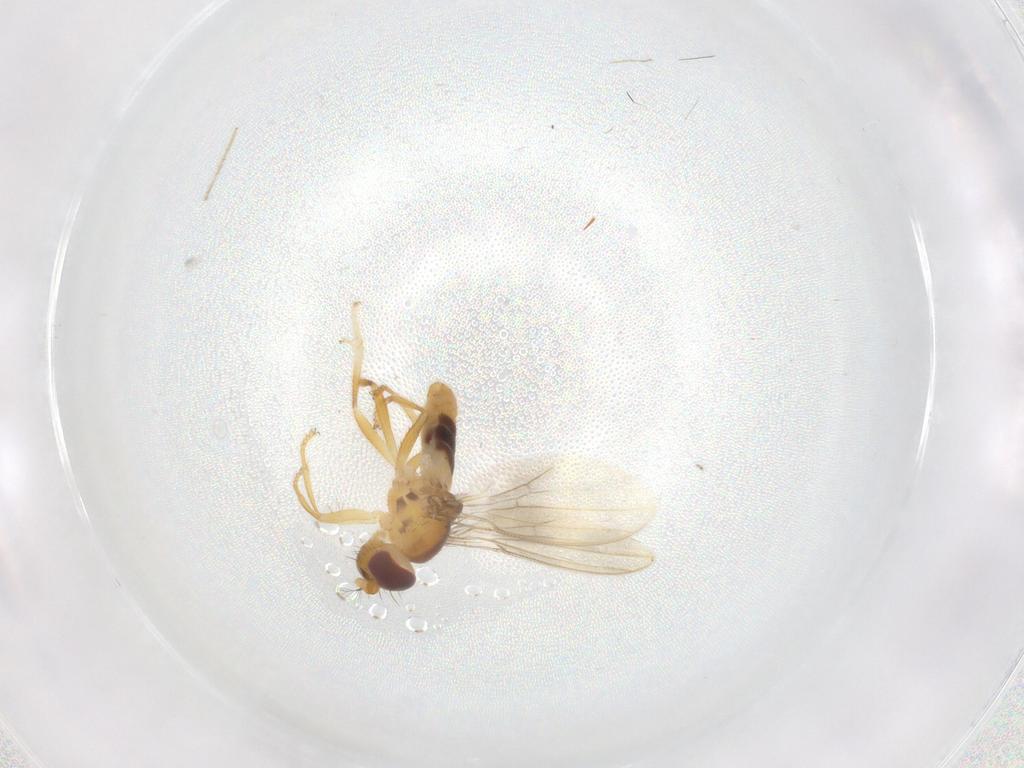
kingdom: Animalia
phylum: Arthropoda
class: Insecta
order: Diptera
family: Periscelididae
